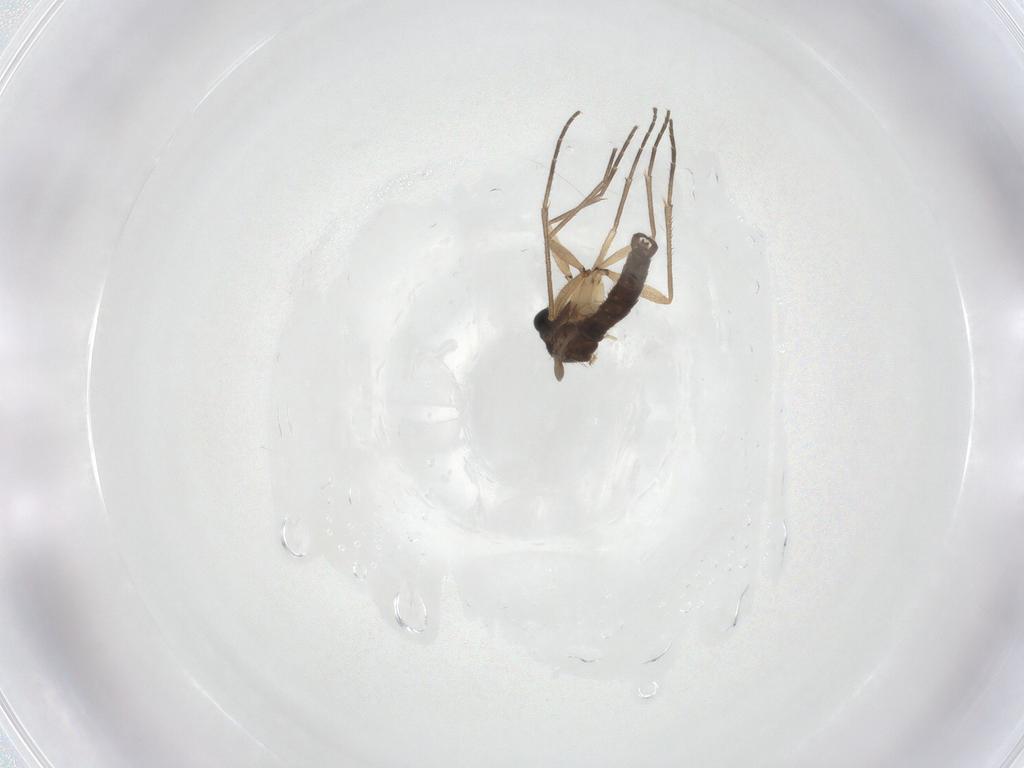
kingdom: Animalia
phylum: Arthropoda
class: Insecta
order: Diptera
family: Sciaridae
